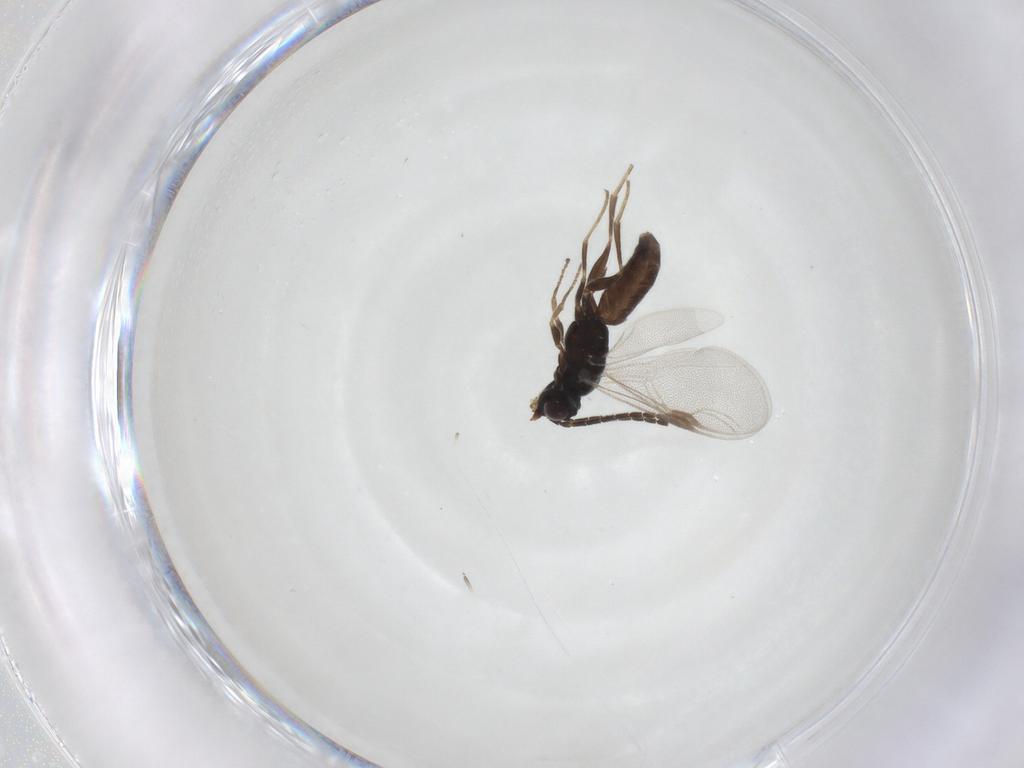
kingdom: Animalia
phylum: Arthropoda
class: Insecta
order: Hymenoptera
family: Dryinidae
